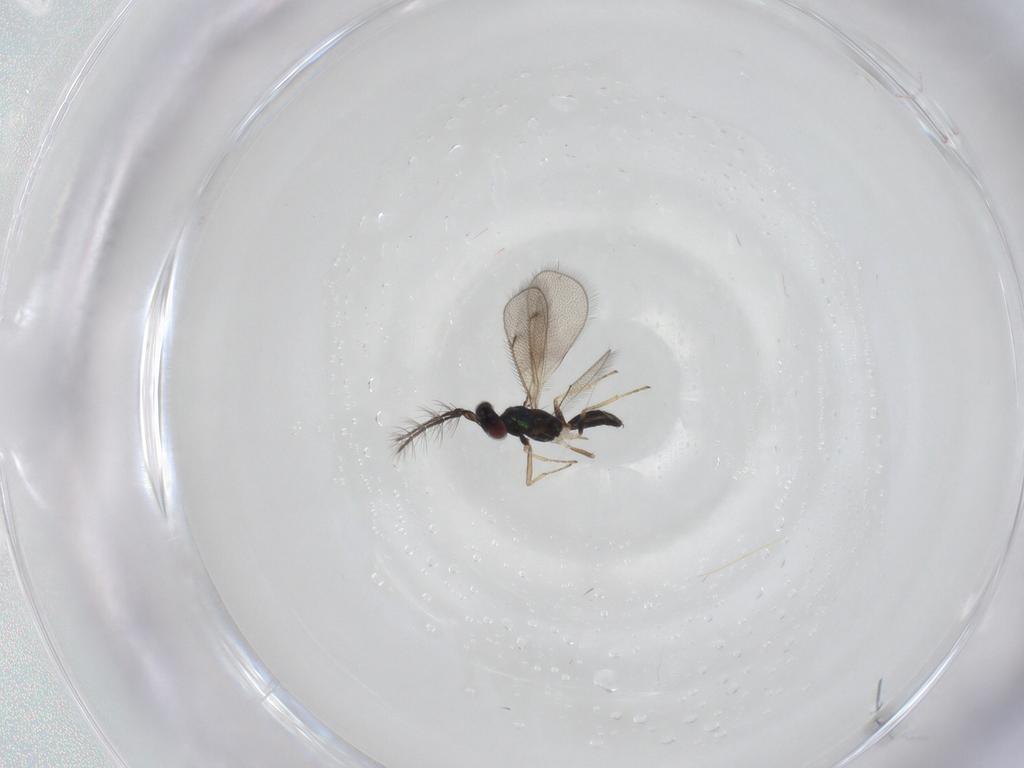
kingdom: Animalia
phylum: Arthropoda
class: Insecta
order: Hymenoptera
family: Eulophidae
